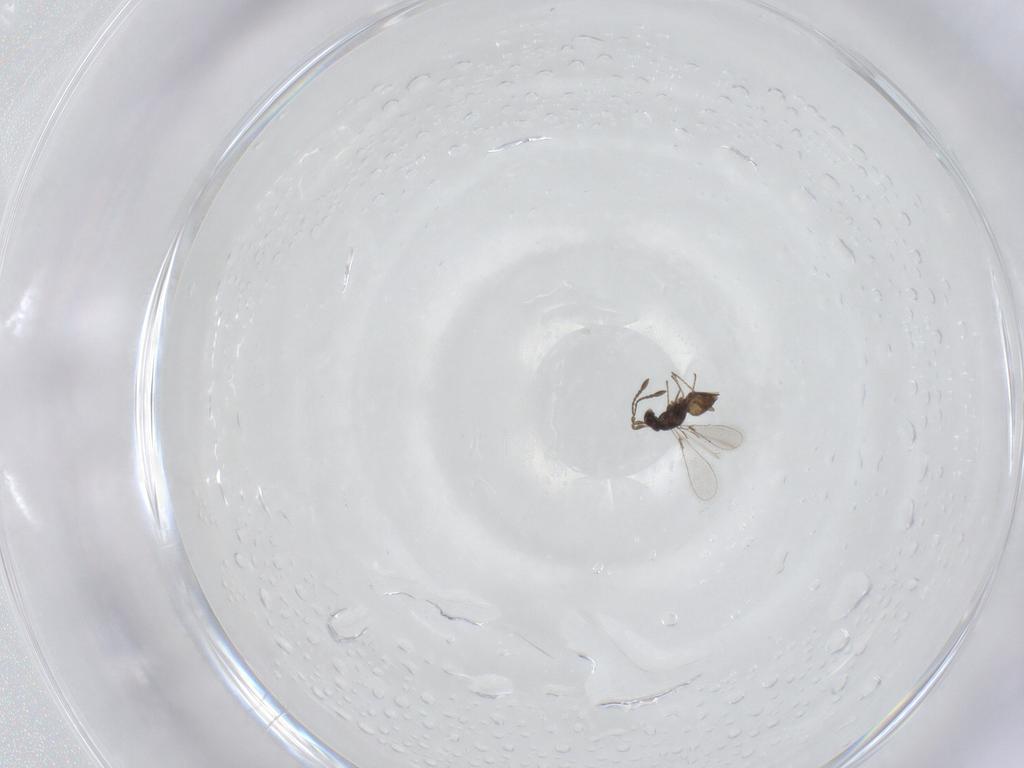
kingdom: Animalia
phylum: Arthropoda
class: Insecta
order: Hymenoptera
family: Mymaridae
